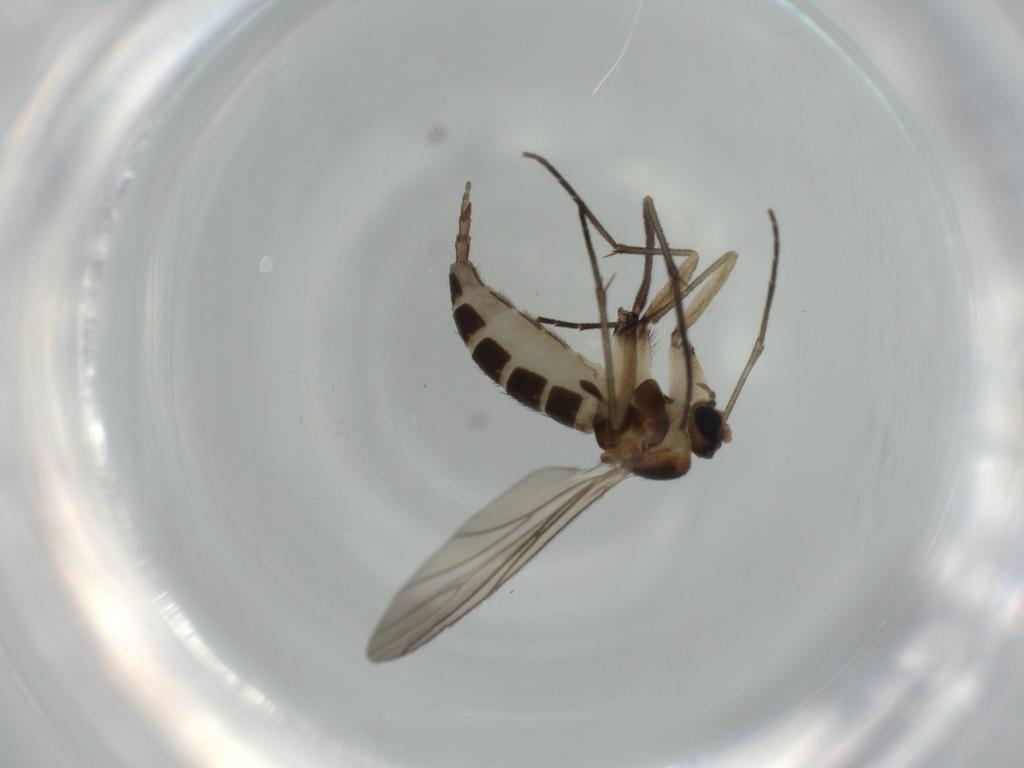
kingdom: Animalia
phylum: Arthropoda
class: Insecta
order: Diptera
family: Sciaridae
